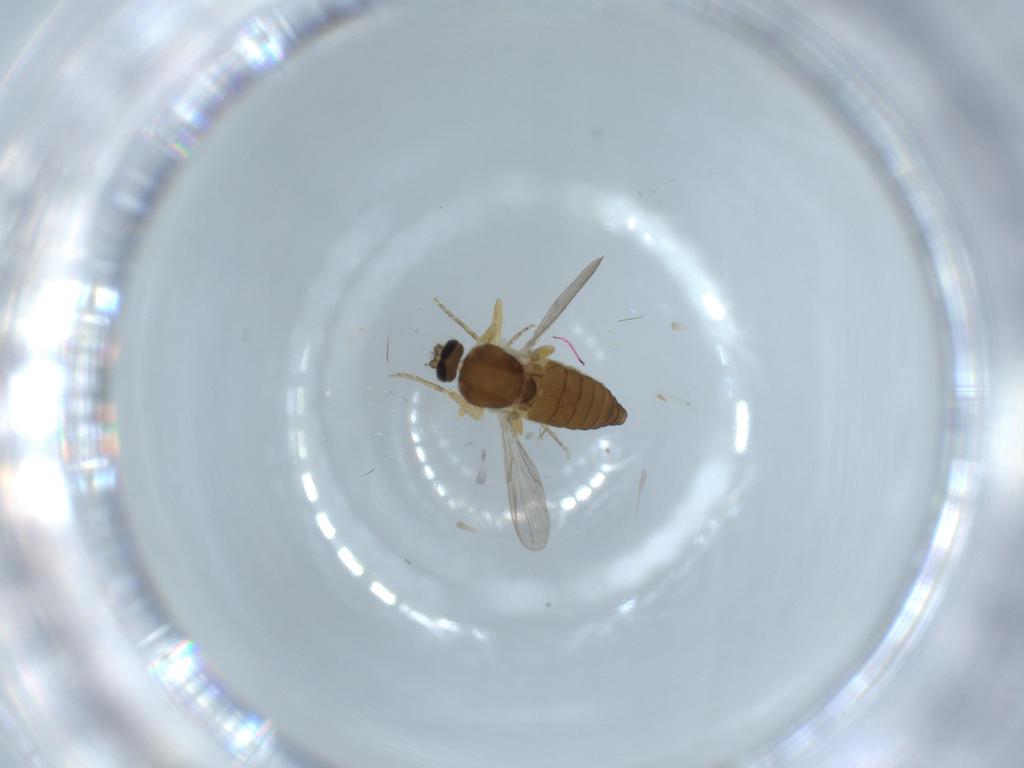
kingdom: Animalia
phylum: Arthropoda
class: Insecta
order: Diptera
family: Ceratopogonidae
